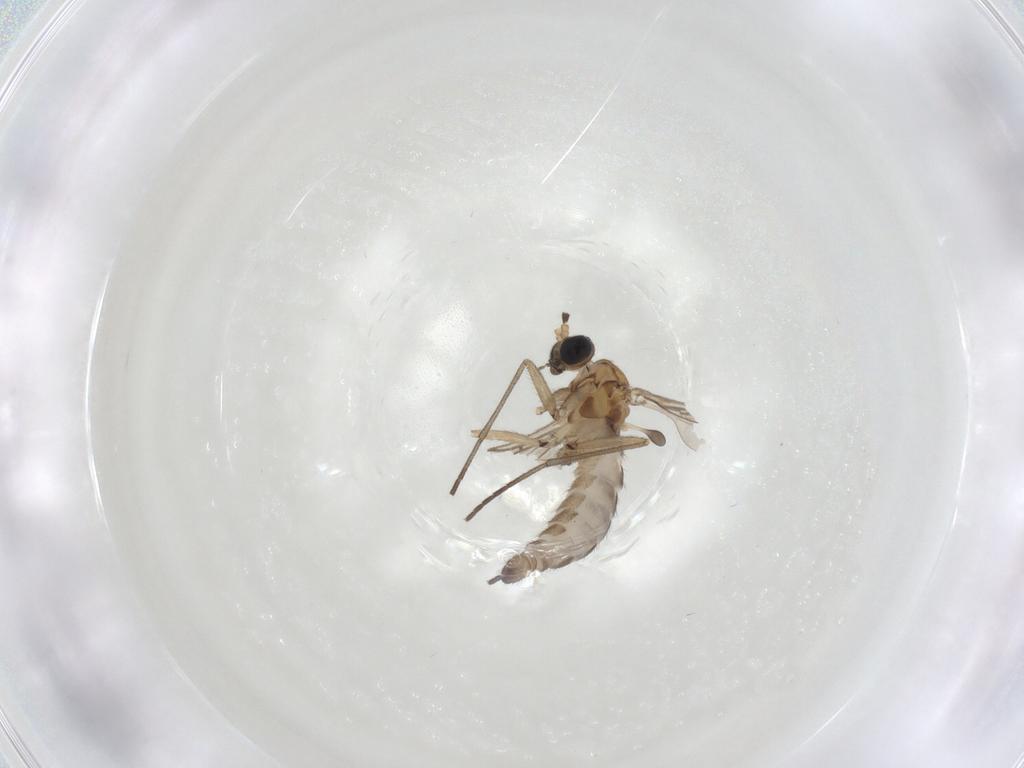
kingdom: Animalia
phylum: Arthropoda
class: Insecta
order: Diptera
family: Sciaridae
